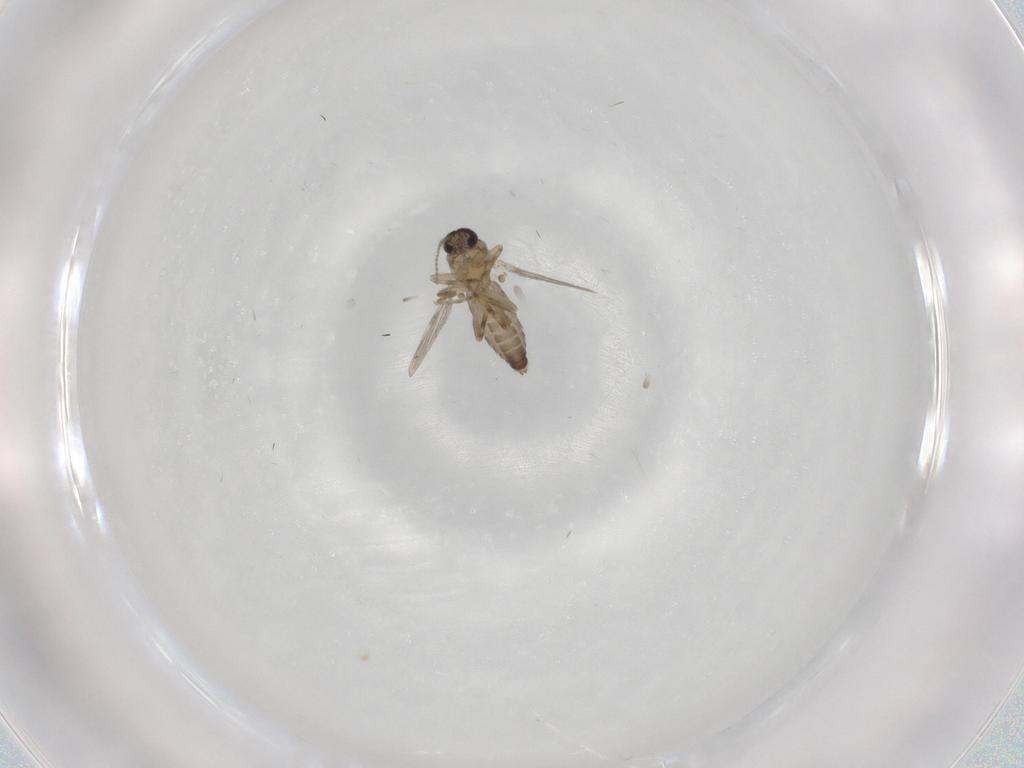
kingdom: Animalia
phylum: Arthropoda
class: Insecta
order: Diptera
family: Ceratopogonidae
